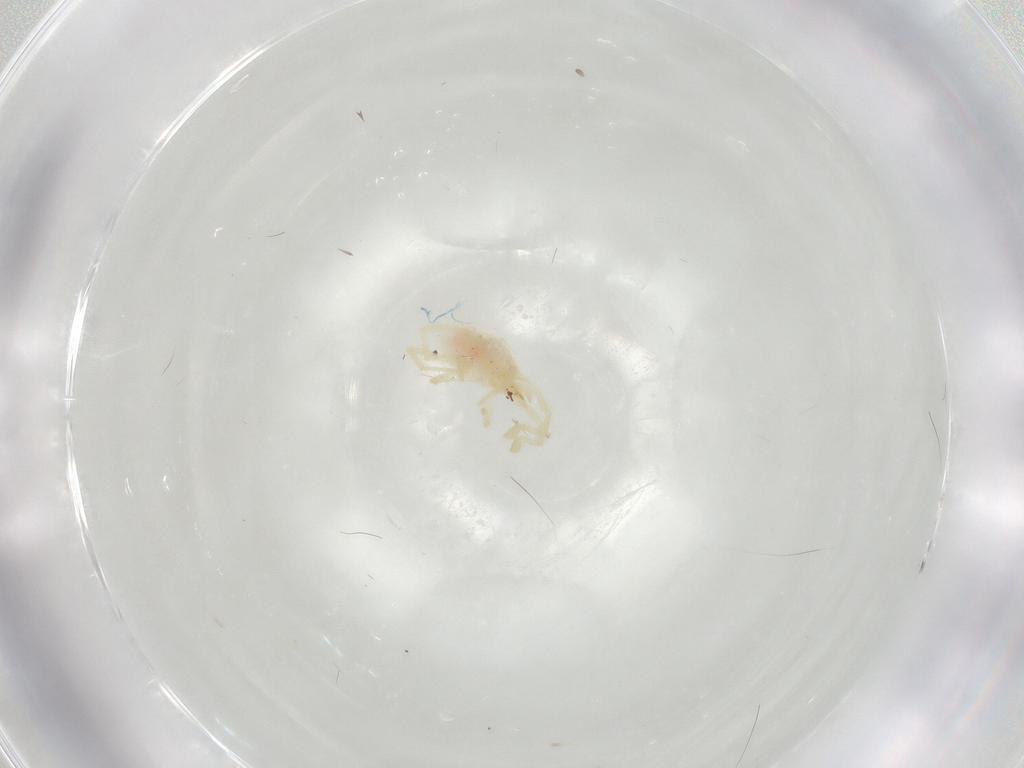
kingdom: Animalia
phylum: Arthropoda
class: Arachnida
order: Trombidiformes
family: Erythraeidae
